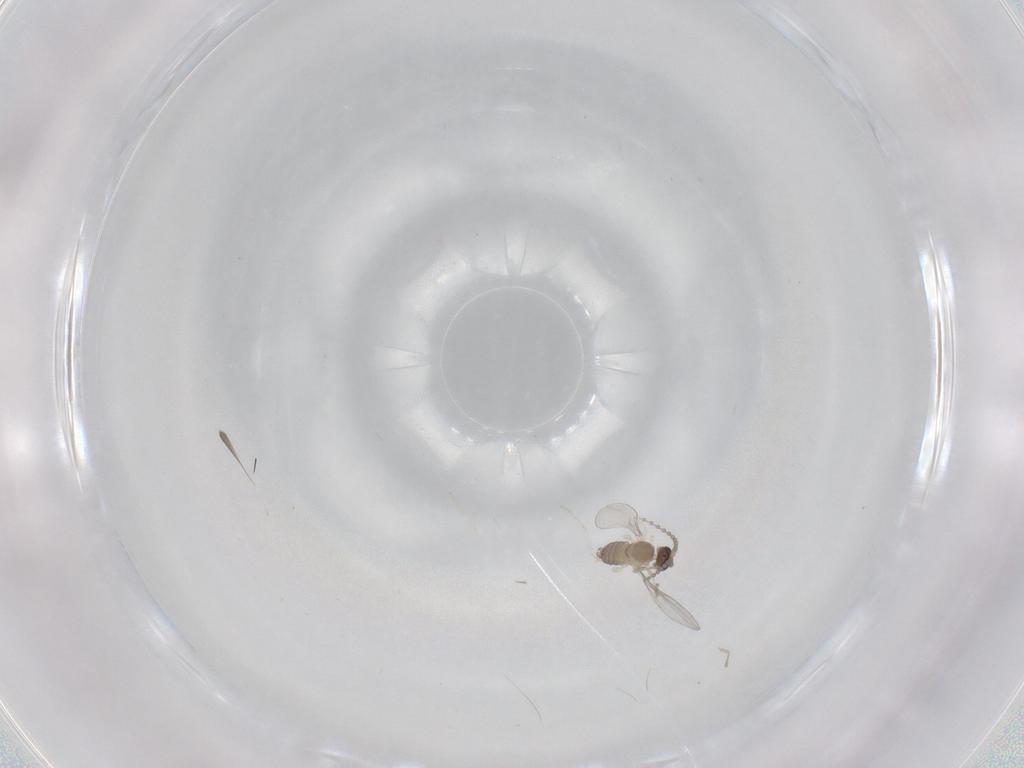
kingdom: Animalia
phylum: Arthropoda
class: Insecta
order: Diptera
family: Cecidomyiidae
